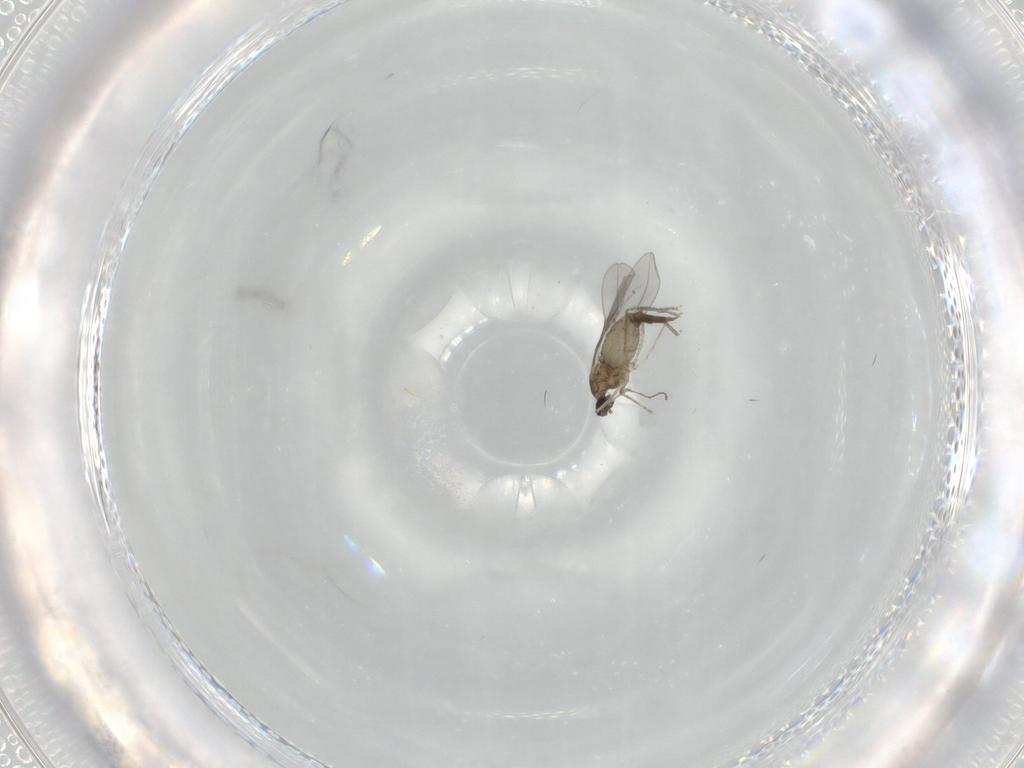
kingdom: Animalia
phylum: Arthropoda
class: Insecta
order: Diptera
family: Cecidomyiidae
